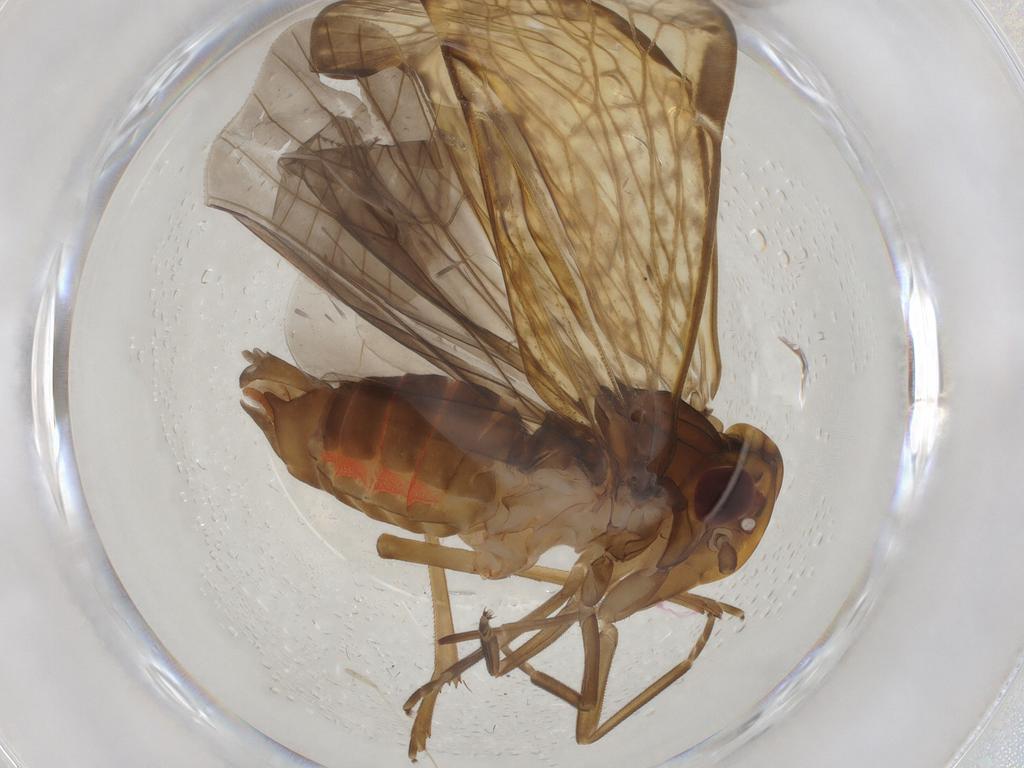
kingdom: Animalia
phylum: Arthropoda
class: Insecta
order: Hemiptera
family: Cixiidae
